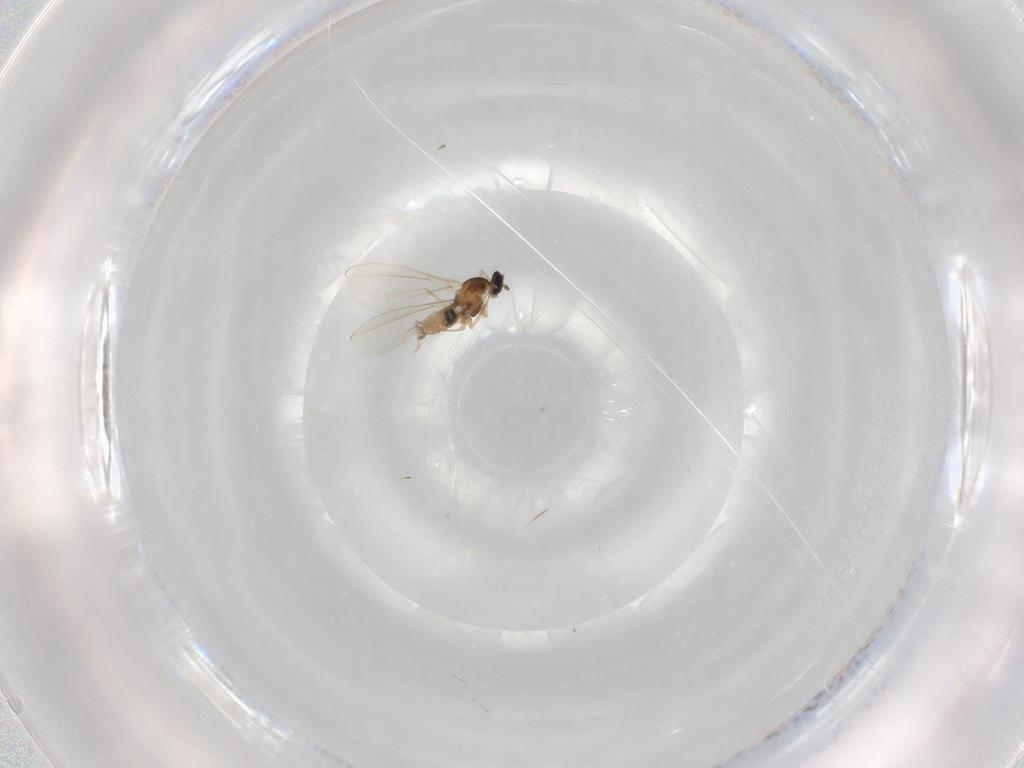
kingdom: Animalia
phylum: Arthropoda
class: Insecta
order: Diptera
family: Cecidomyiidae
